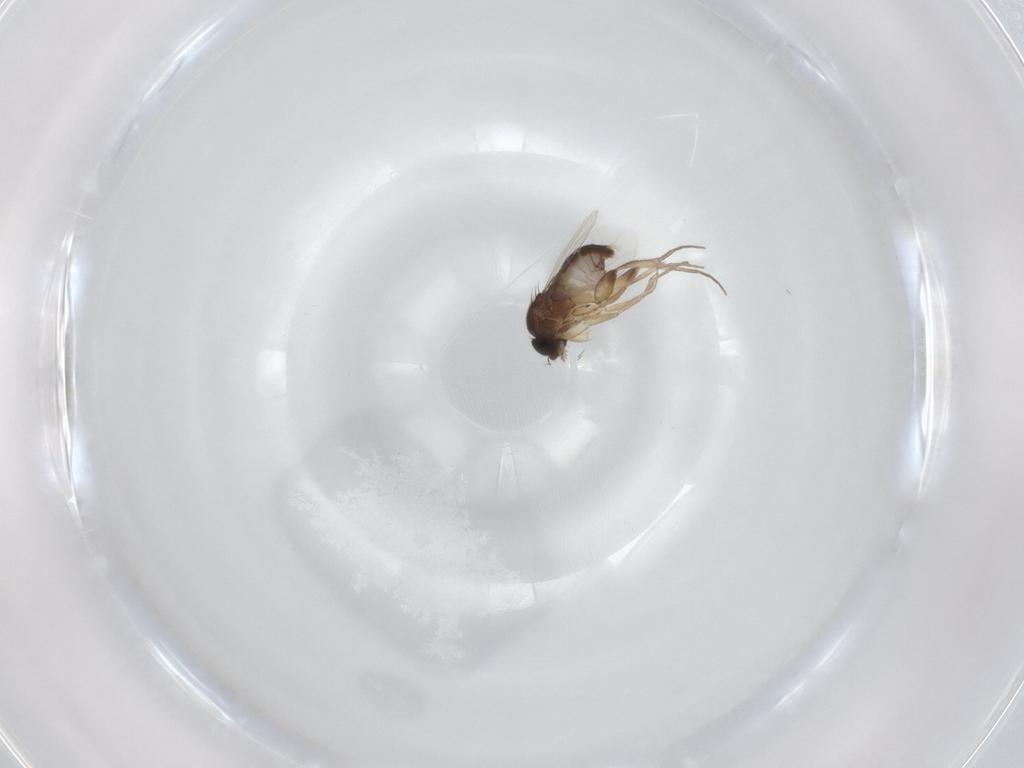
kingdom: Animalia
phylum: Arthropoda
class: Insecta
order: Diptera
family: Phoridae
